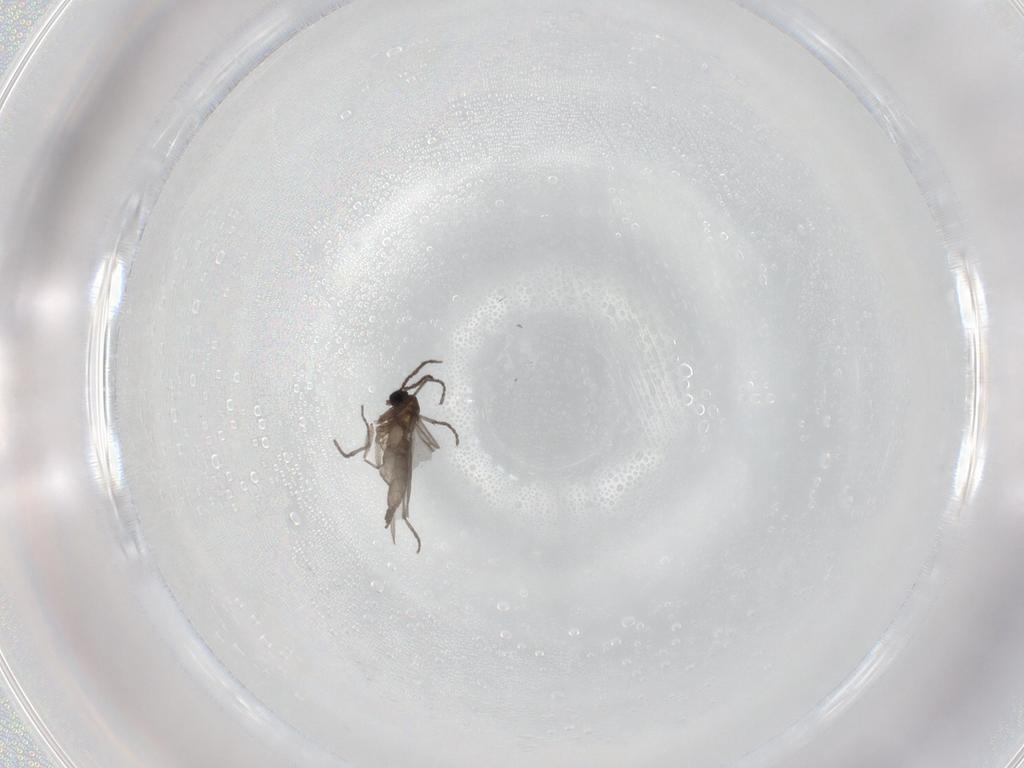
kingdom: Animalia
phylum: Arthropoda
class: Insecta
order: Diptera
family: Sciaridae
